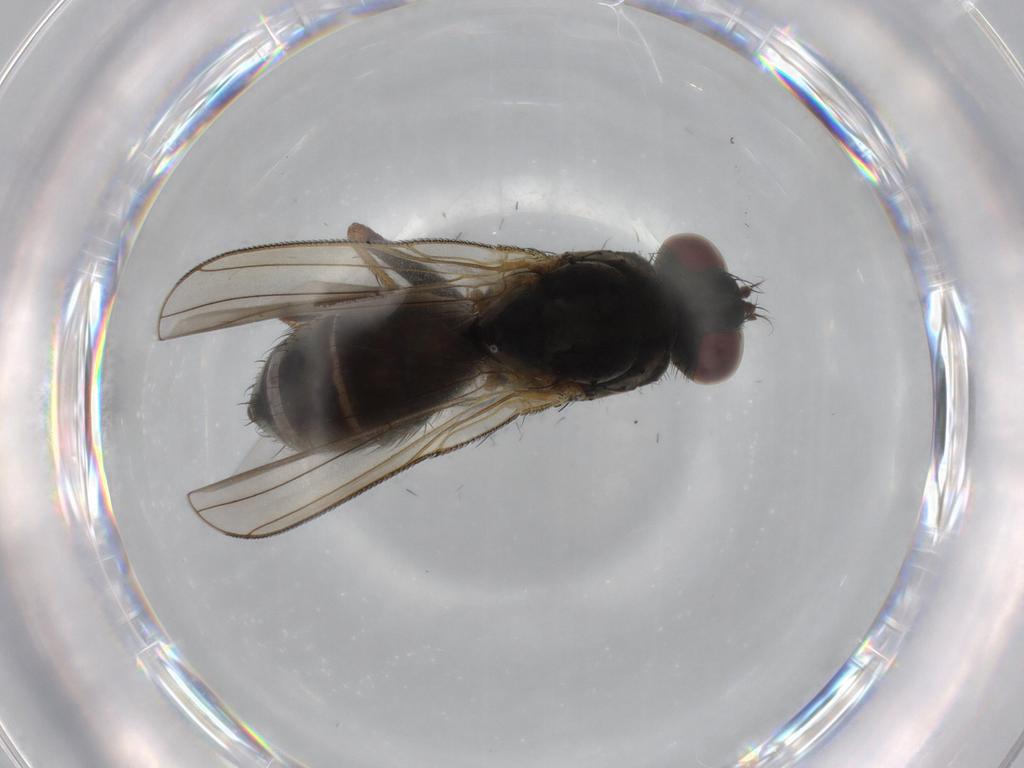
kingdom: Animalia
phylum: Arthropoda
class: Insecta
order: Diptera
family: Muscidae
